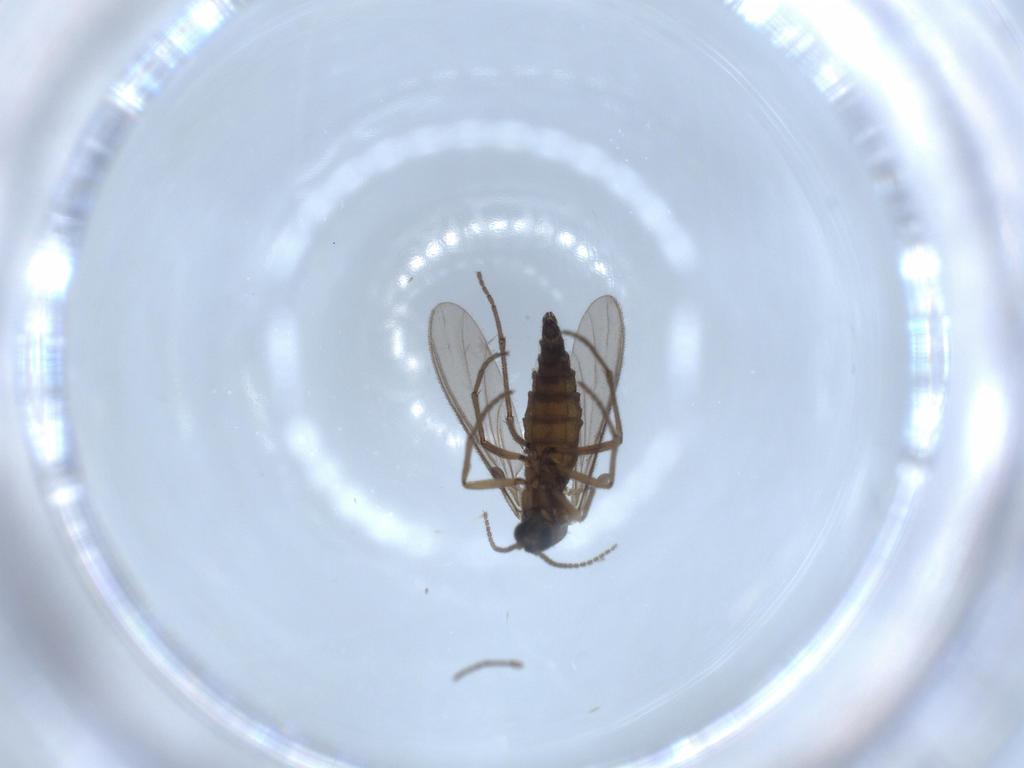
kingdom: Animalia
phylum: Arthropoda
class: Insecta
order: Diptera
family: Sciaridae
